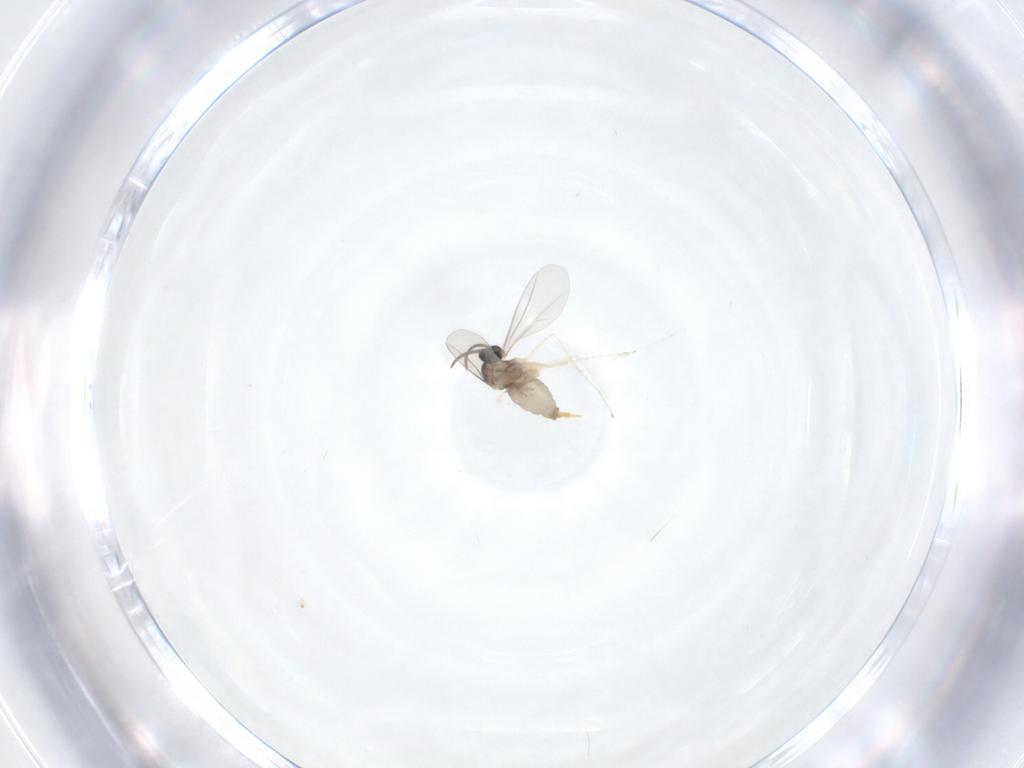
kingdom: Animalia
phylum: Arthropoda
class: Insecta
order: Diptera
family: Cecidomyiidae
